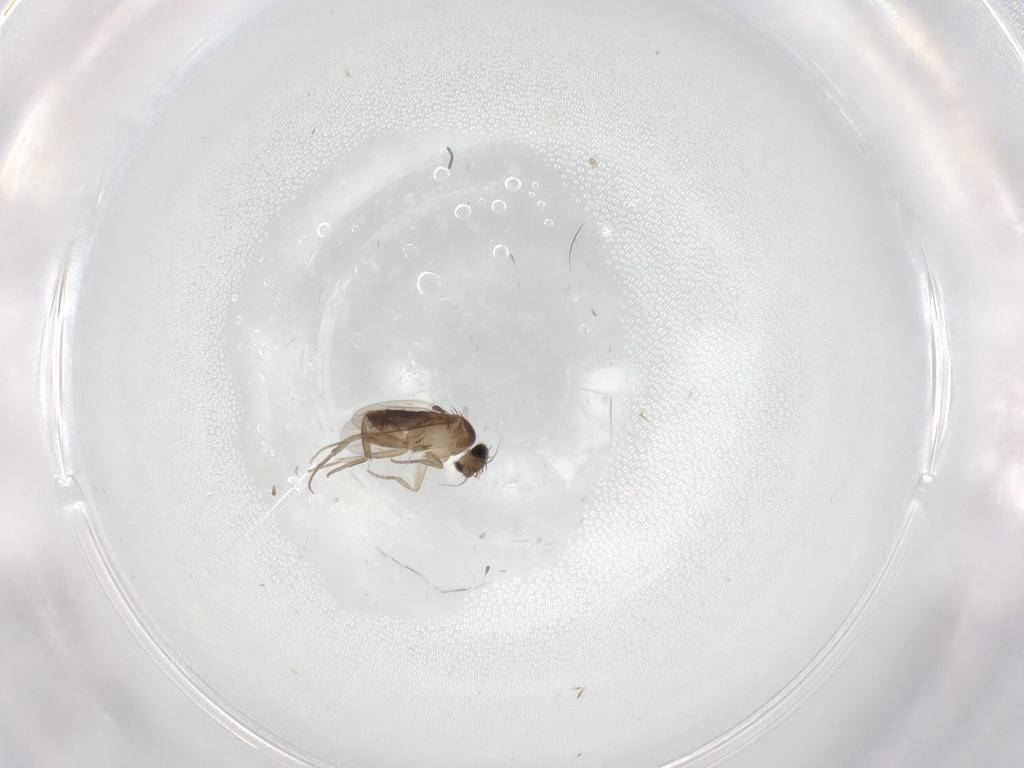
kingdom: Animalia
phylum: Arthropoda
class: Insecta
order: Diptera
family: Phoridae
